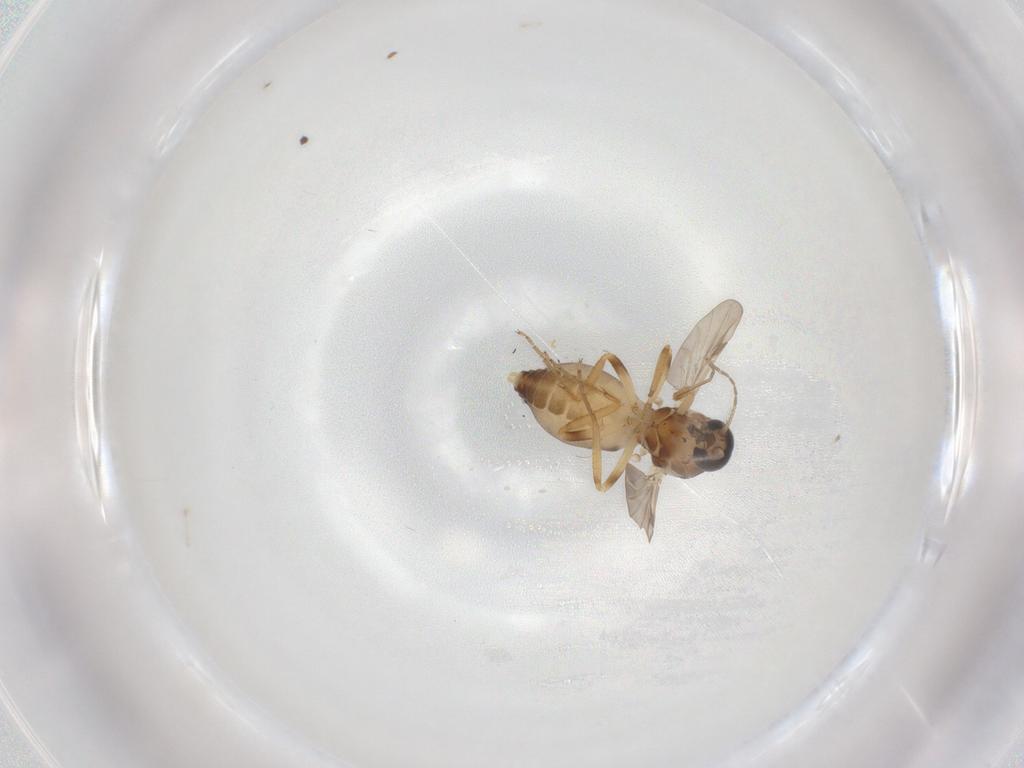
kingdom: Animalia
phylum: Arthropoda
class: Insecta
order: Diptera
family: Ceratopogonidae
